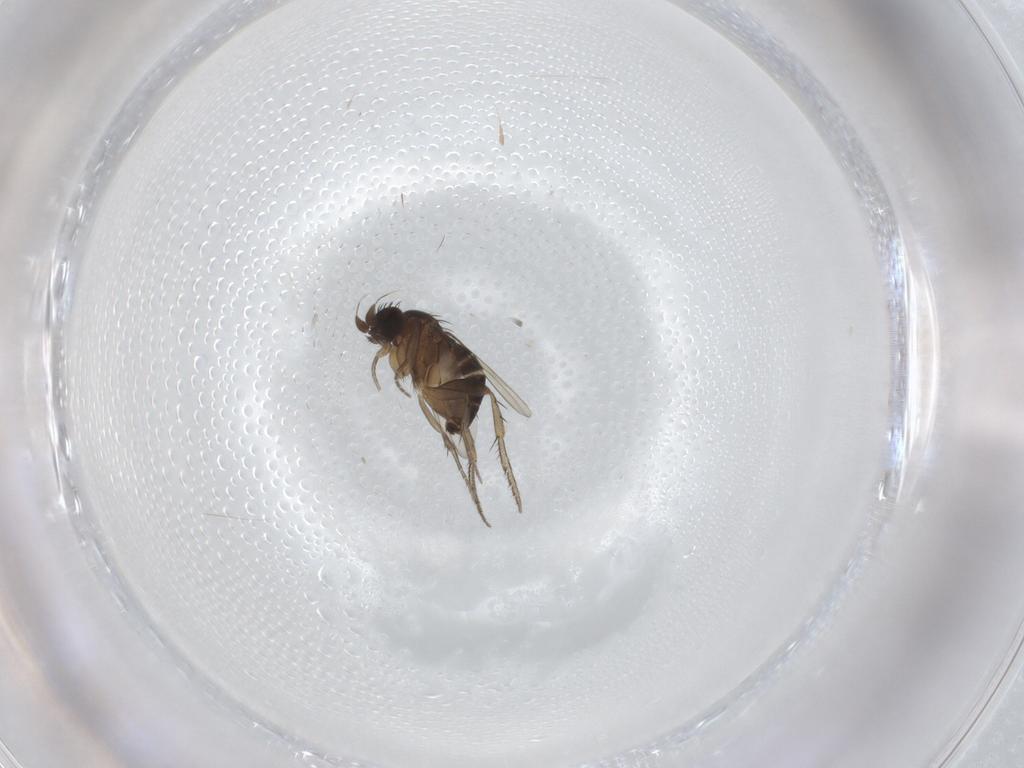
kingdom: Animalia
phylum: Arthropoda
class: Insecta
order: Diptera
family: Phoridae
